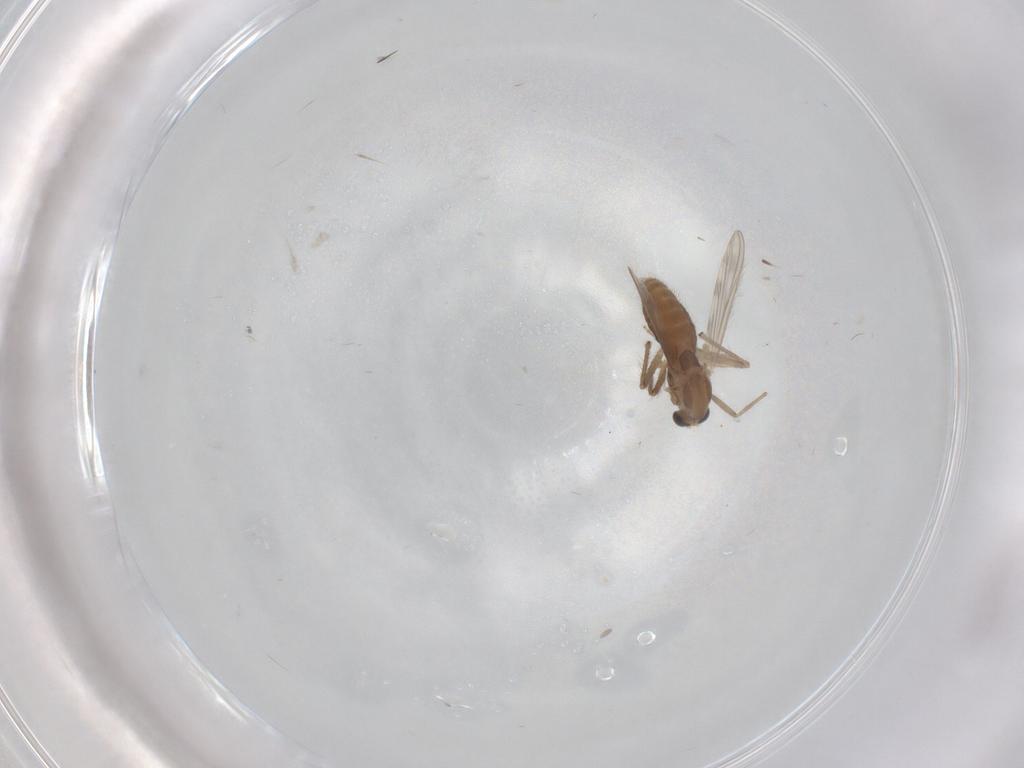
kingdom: Animalia
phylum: Arthropoda
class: Insecta
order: Diptera
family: Chironomidae
